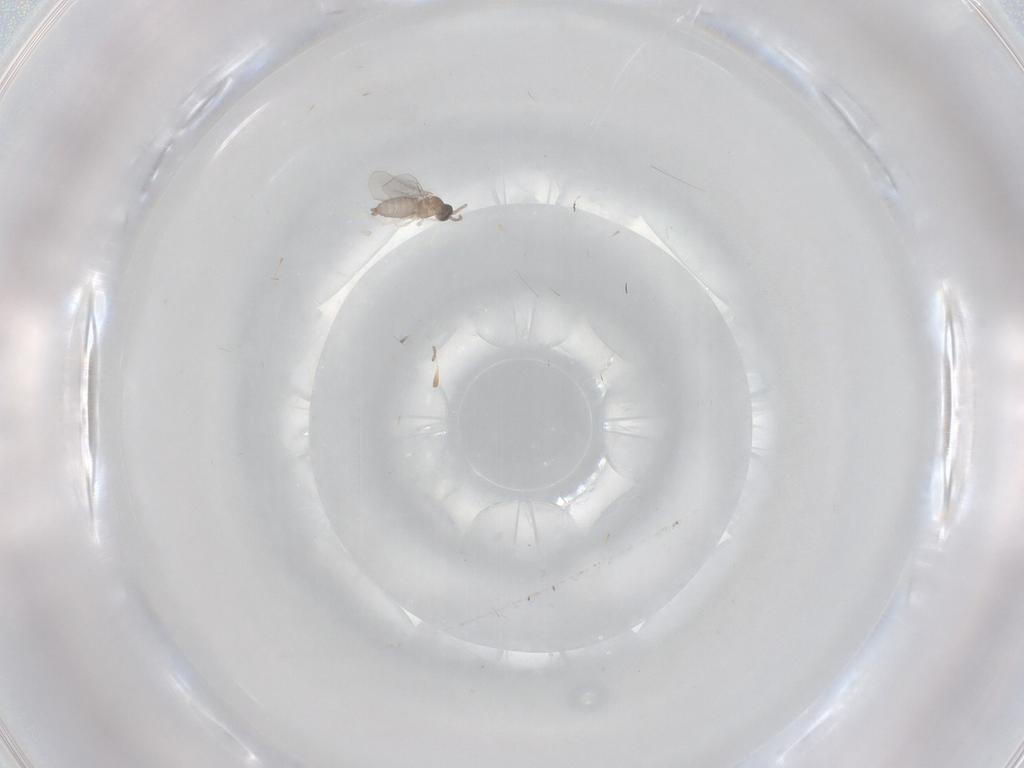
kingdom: Animalia
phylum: Arthropoda
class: Insecta
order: Diptera
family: Cecidomyiidae
